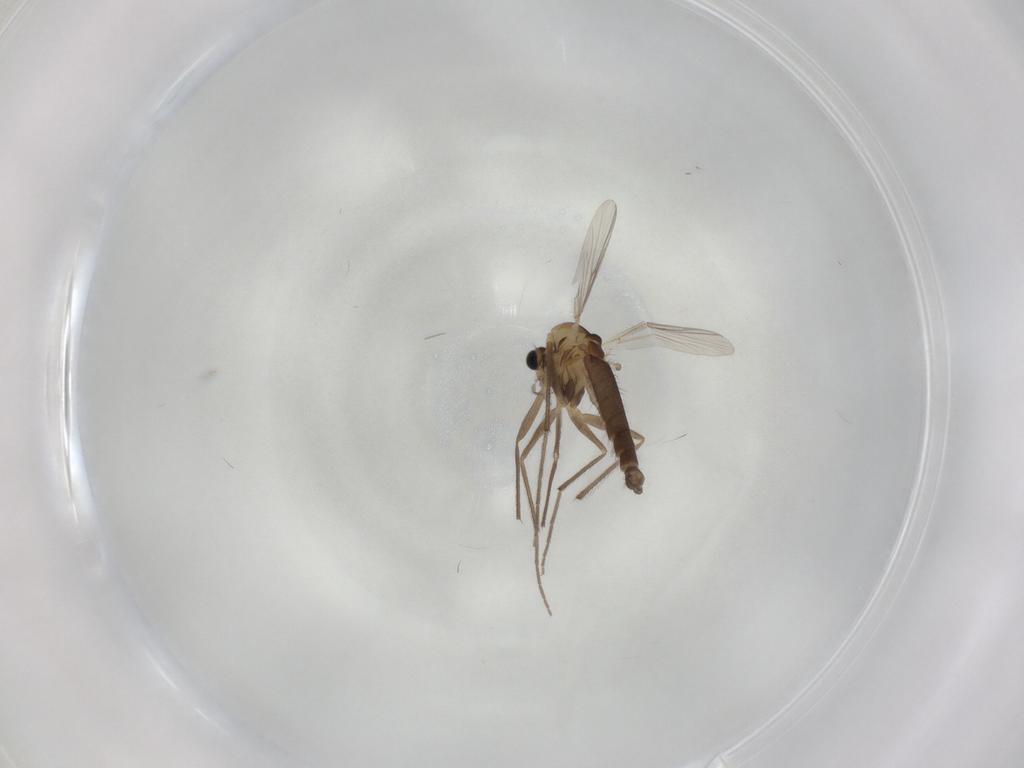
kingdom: Animalia
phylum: Arthropoda
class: Insecta
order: Diptera
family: Chironomidae
